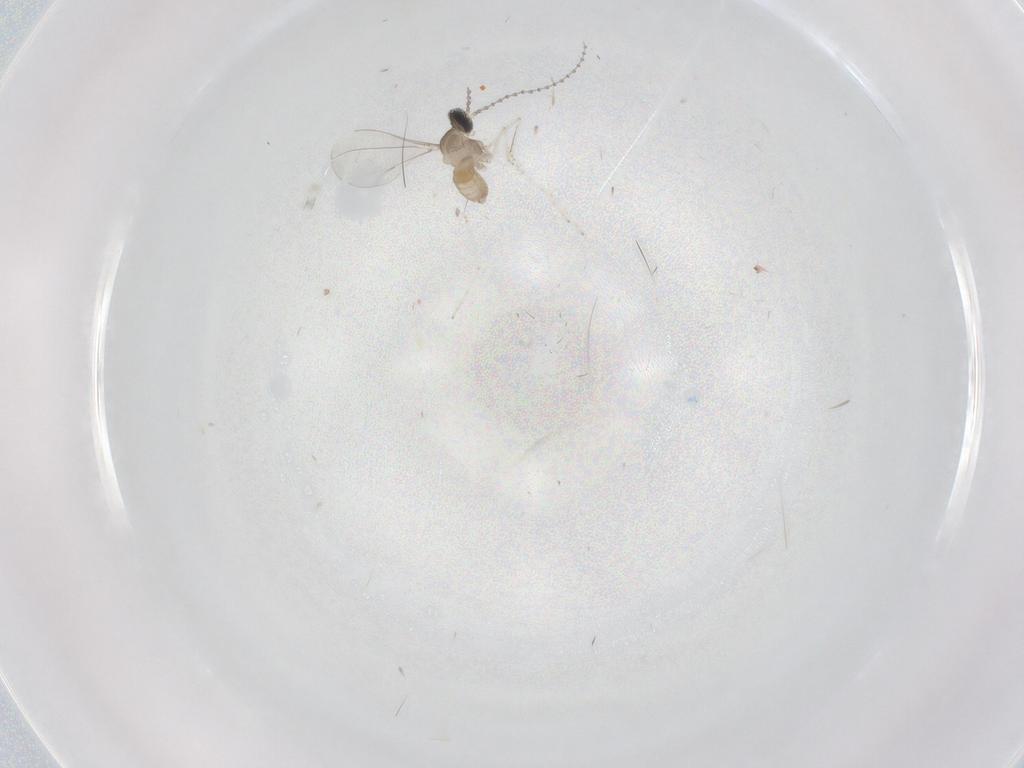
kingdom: Animalia
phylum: Arthropoda
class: Insecta
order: Diptera
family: Cecidomyiidae
